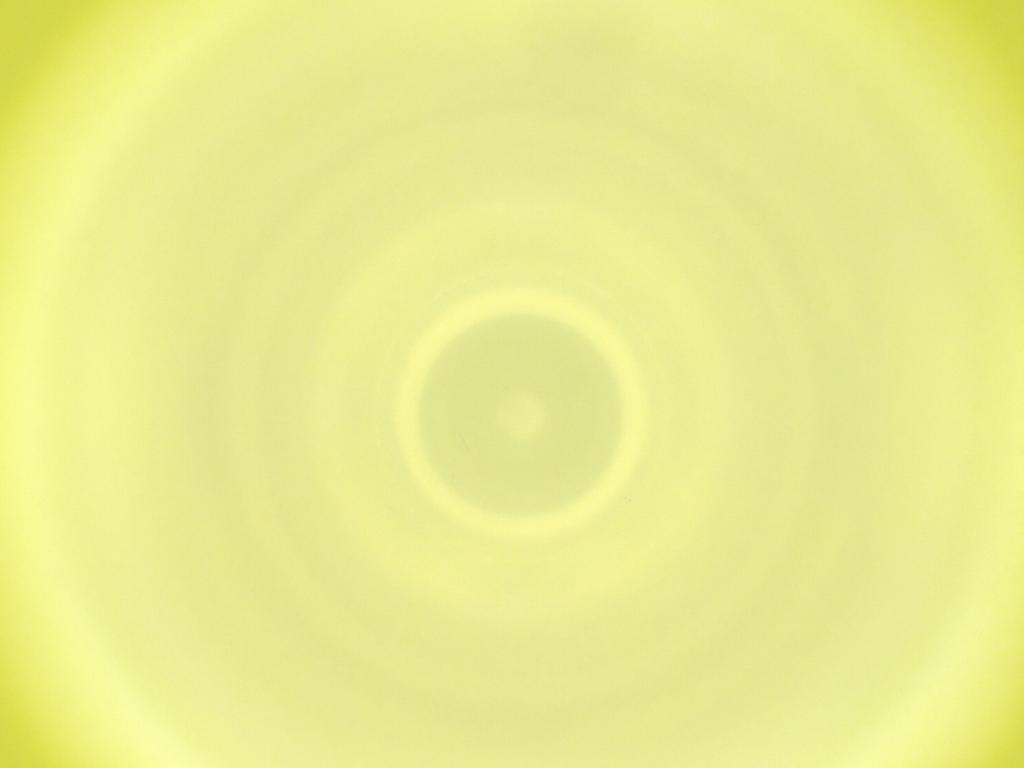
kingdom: Animalia
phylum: Arthropoda
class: Insecta
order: Diptera
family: Cecidomyiidae
